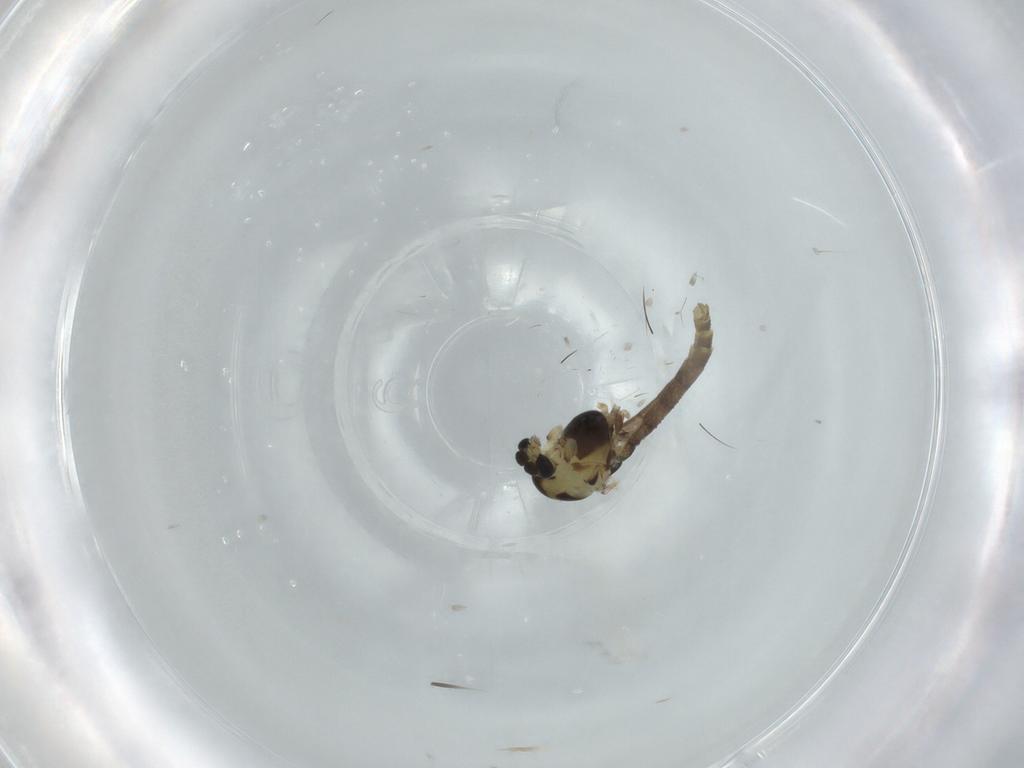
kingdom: Animalia
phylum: Arthropoda
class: Insecta
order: Diptera
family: Chironomidae
